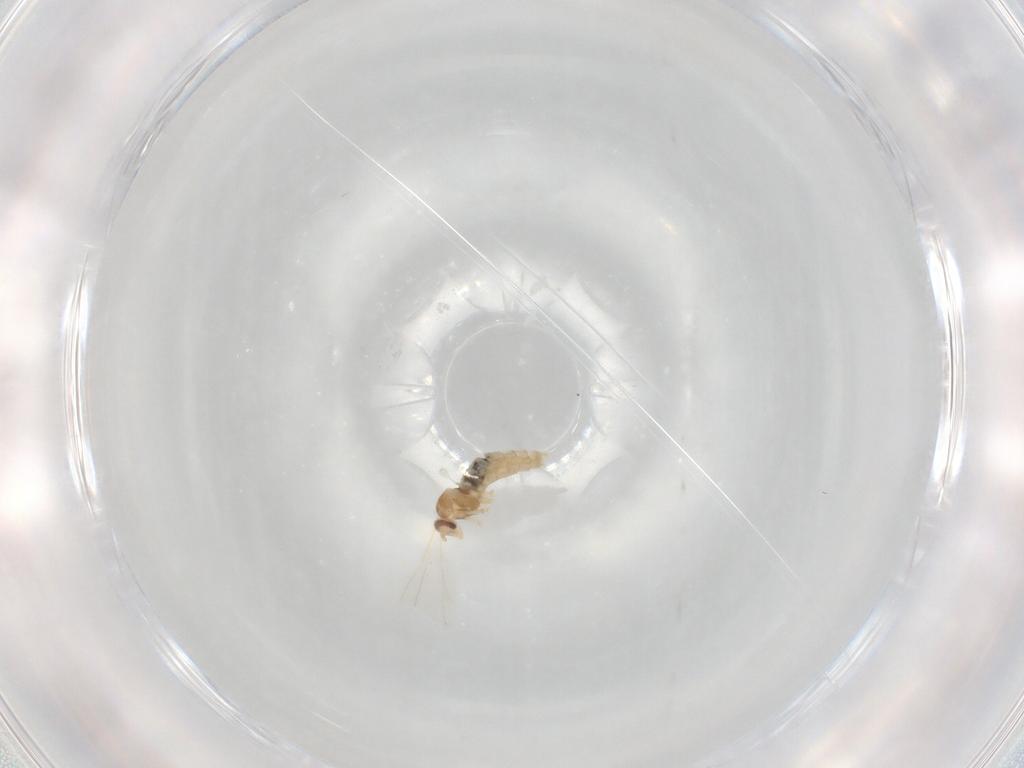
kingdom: Animalia
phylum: Arthropoda
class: Insecta
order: Diptera
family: Cecidomyiidae
